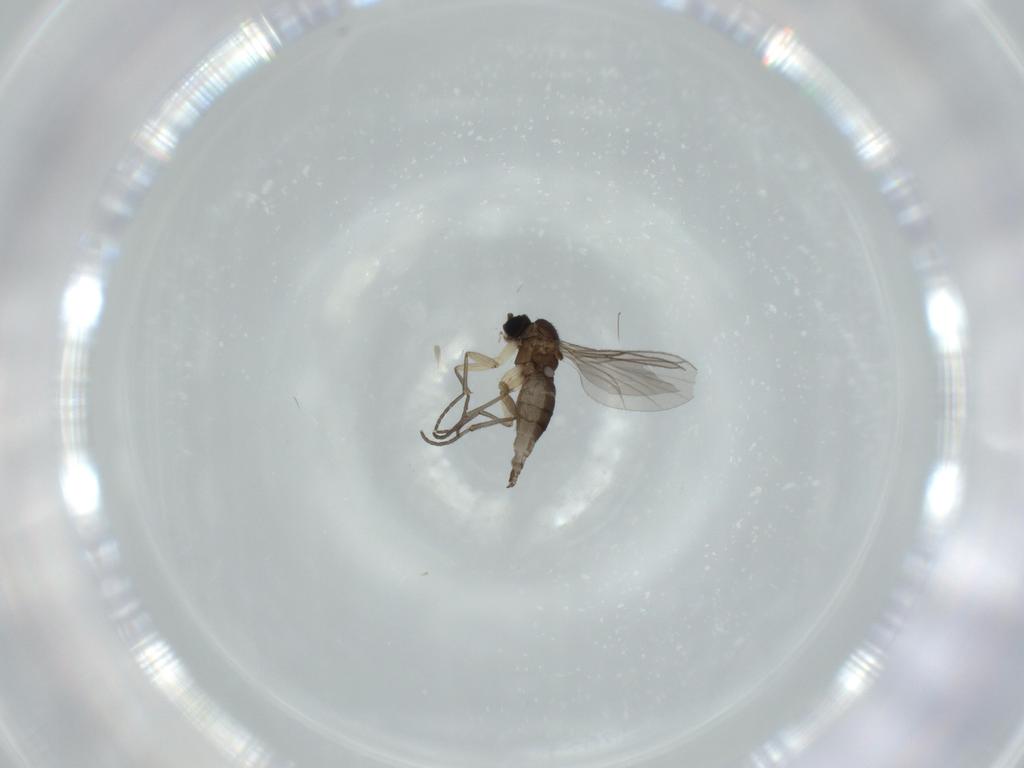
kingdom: Animalia
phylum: Arthropoda
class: Insecta
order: Diptera
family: Sciaridae
